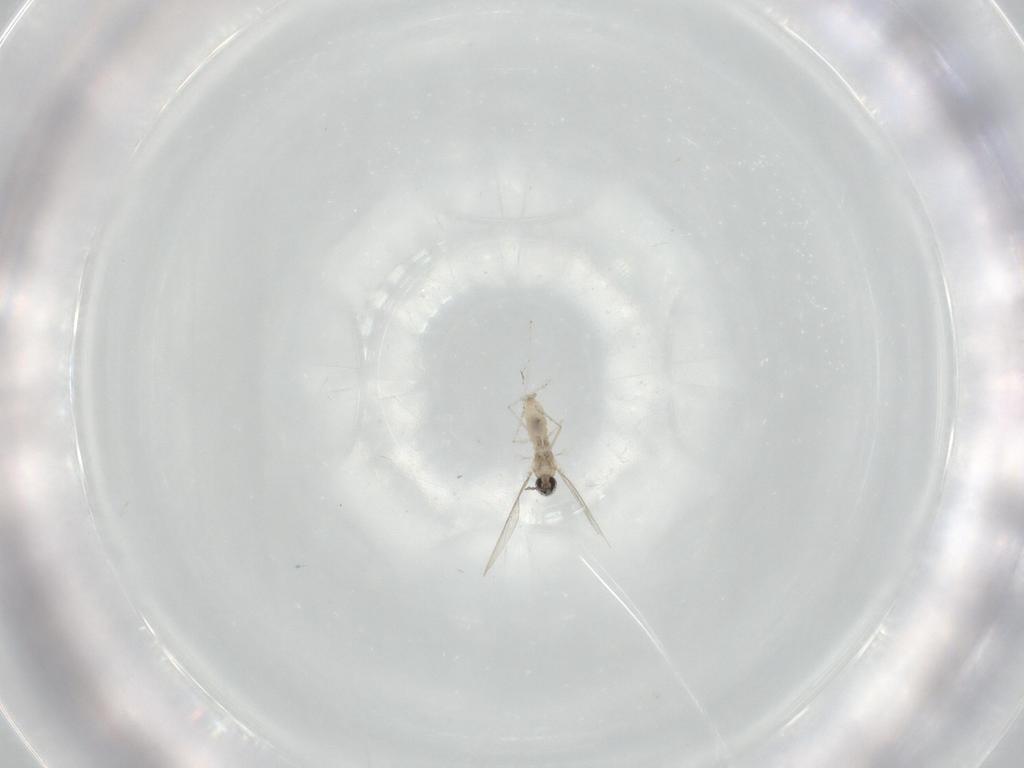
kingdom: Animalia
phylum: Arthropoda
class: Insecta
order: Diptera
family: Cecidomyiidae
